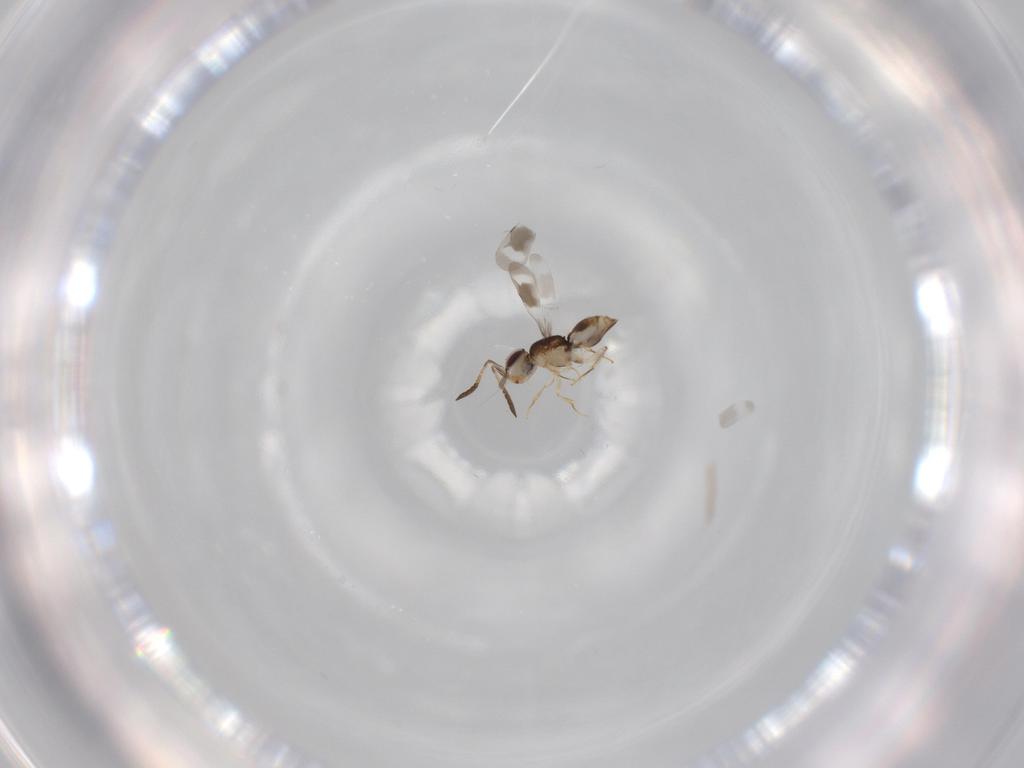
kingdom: Animalia
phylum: Arthropoda
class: Insecta
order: Hymenoptera
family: Ceraphronidae
